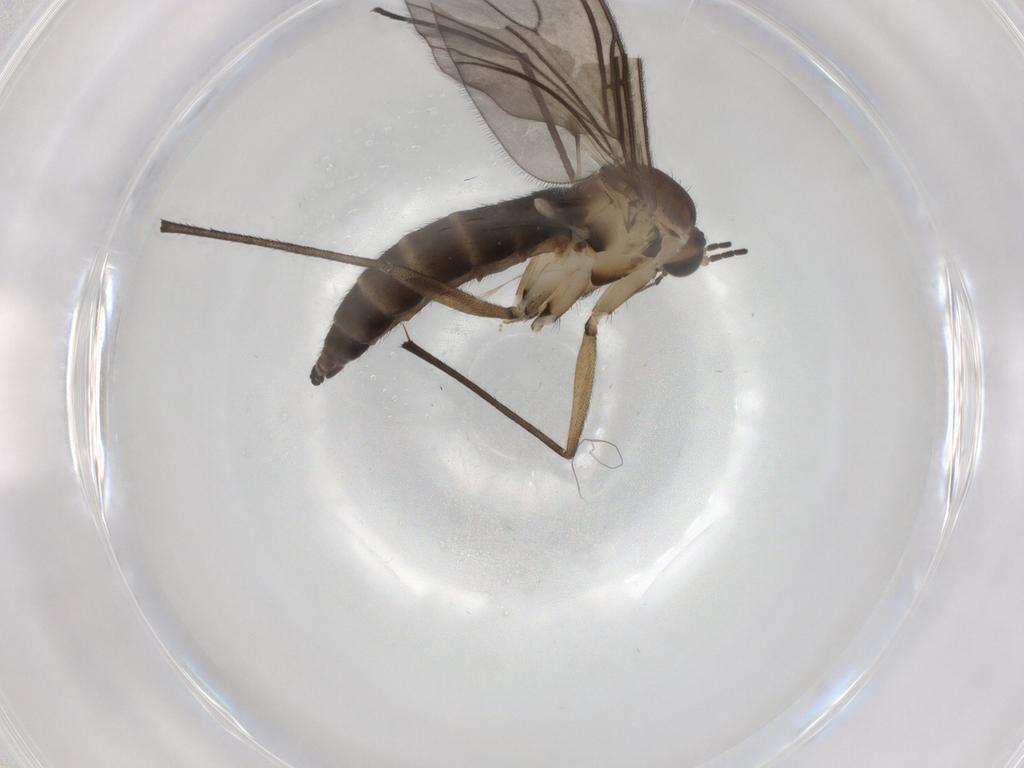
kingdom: Animalia
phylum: Arthropoda
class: Insecta
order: Diptera
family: Sciaridae
